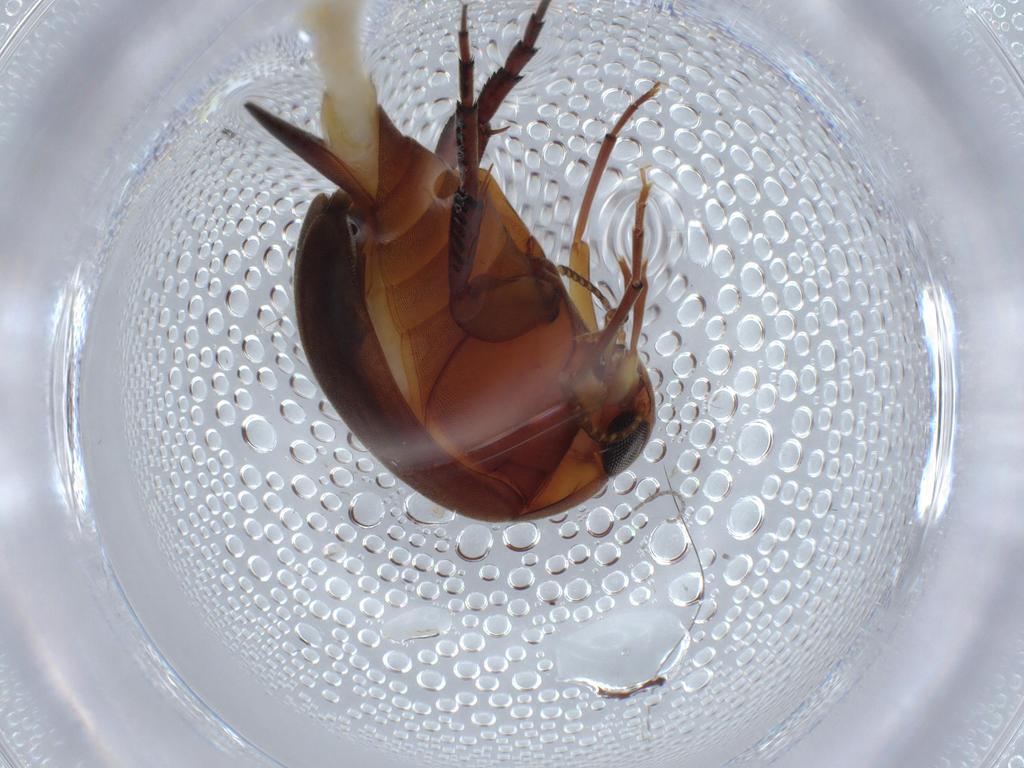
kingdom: Animalia
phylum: Arthropoda
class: Insecta
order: Coleoptera
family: Mordellidae
